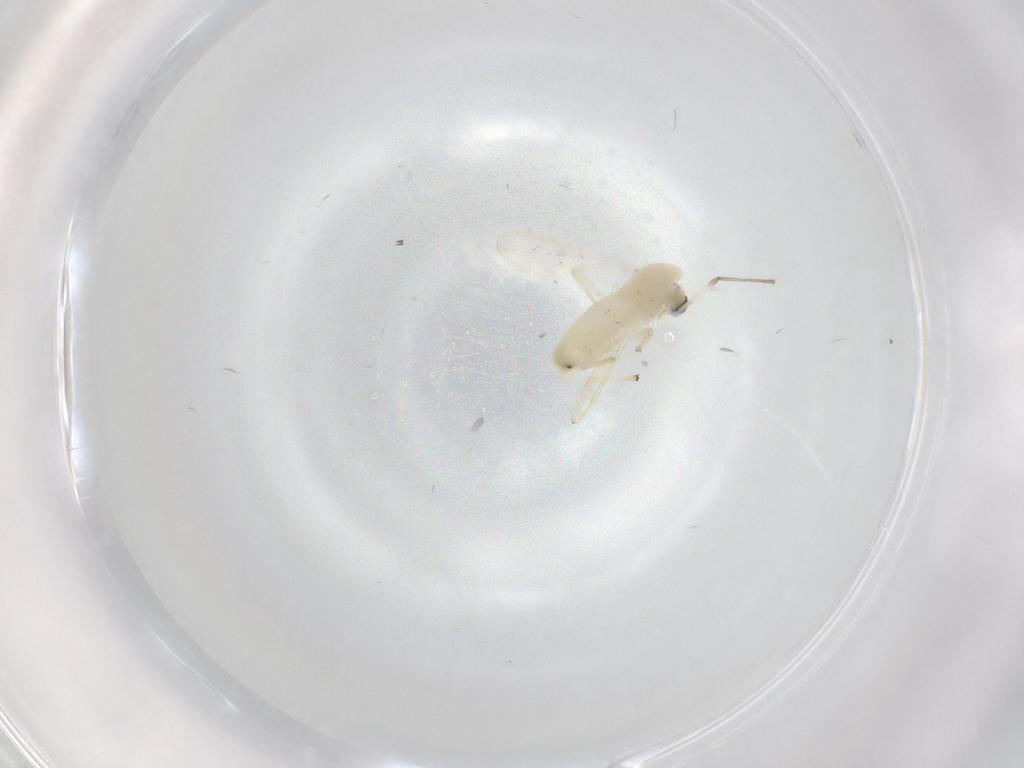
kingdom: Animalia
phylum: Arthropoda
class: Insecta
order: Diptera
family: Chironomidae
